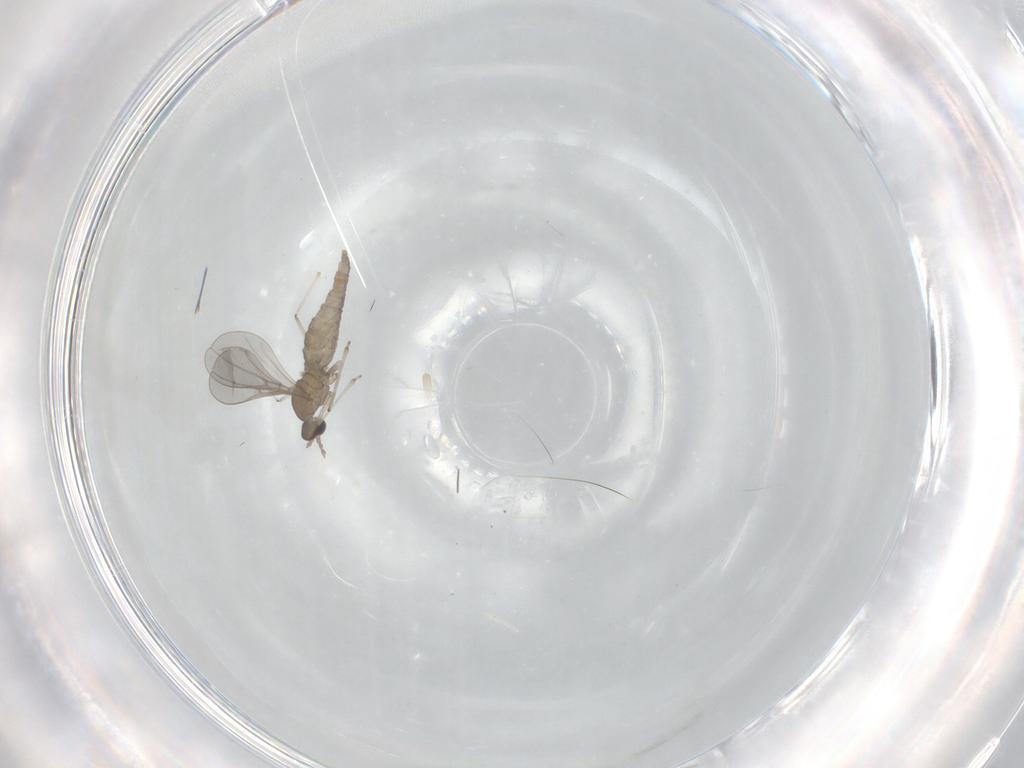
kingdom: Animalia
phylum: Arthropoda
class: Insecta
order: Diptera
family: Cecidomyiidae
